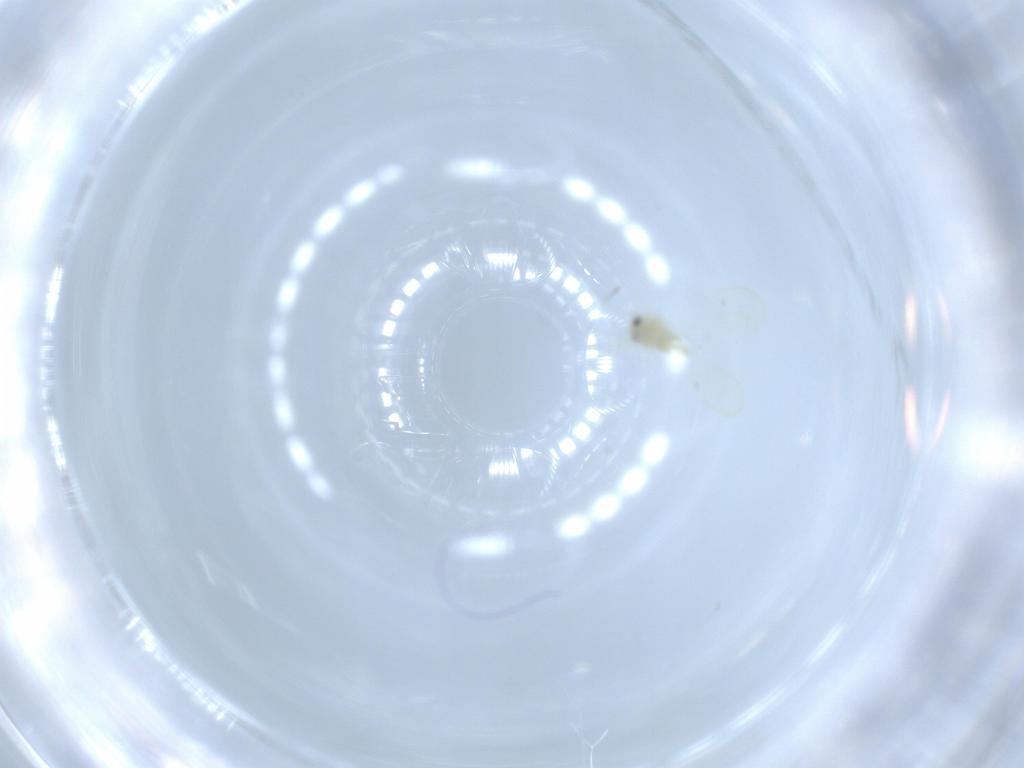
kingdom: Animalia
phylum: Arthropoda
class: Insecta
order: Hemiptera
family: Aleyrodidae
